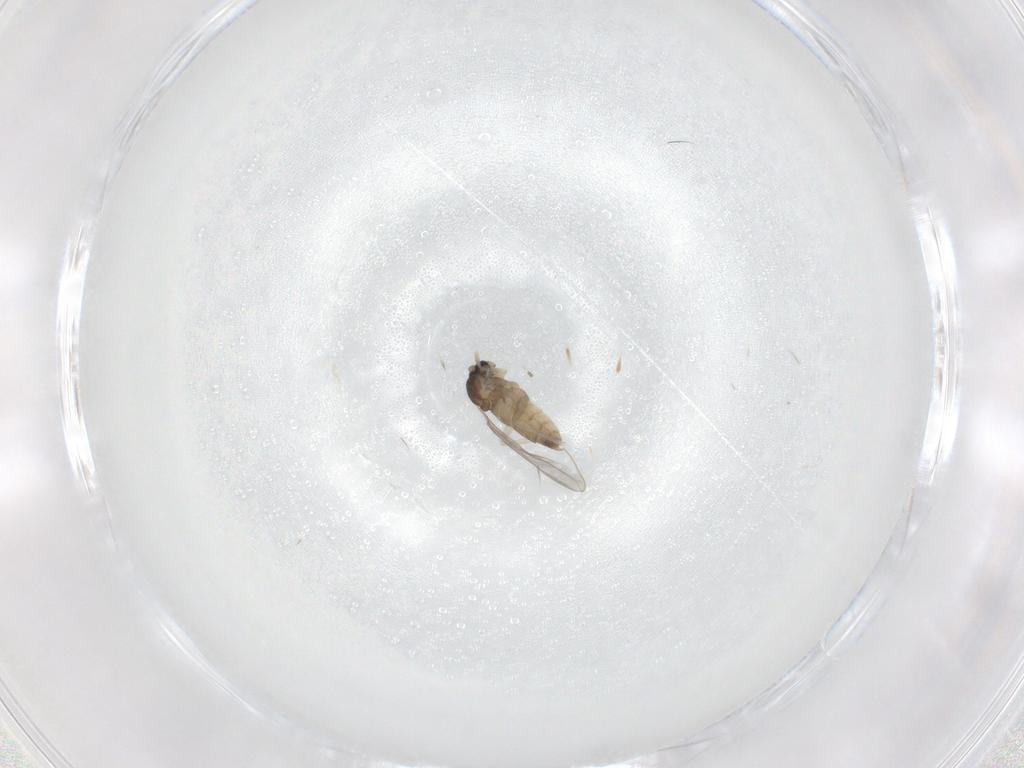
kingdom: Animalia
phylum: Arthropoda
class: Insecta
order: Diptera
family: Cecidomyiidae
